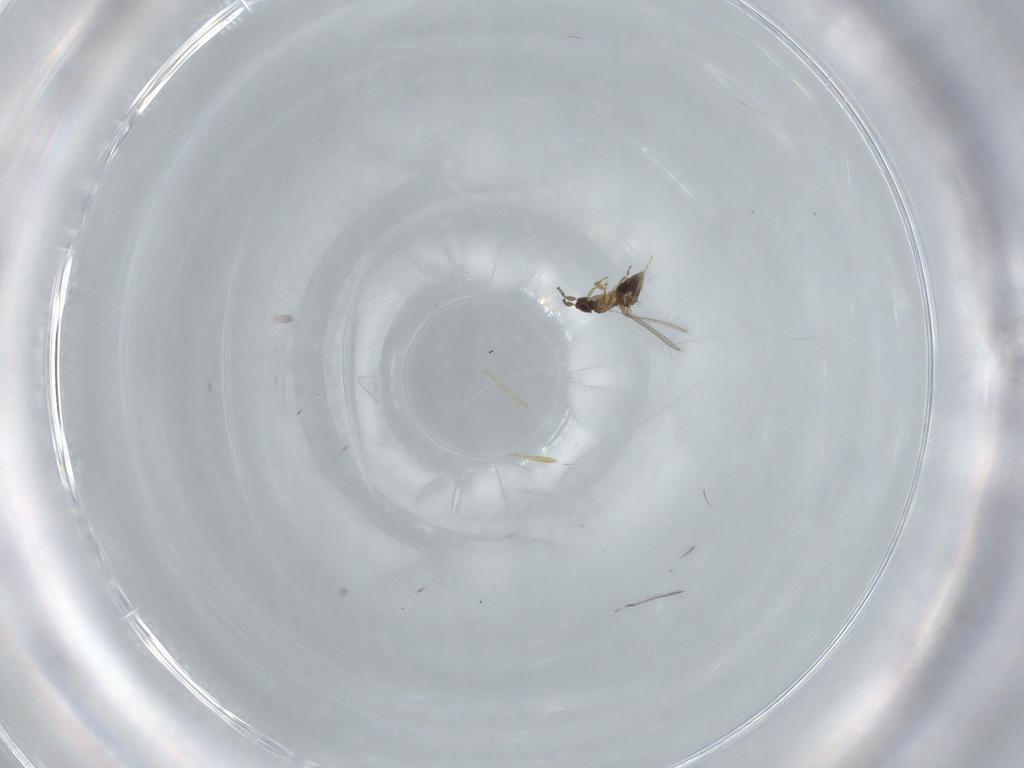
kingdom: Animalia
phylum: Arthropoda
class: Insecta
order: Hymenoptera
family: Mymaridae
